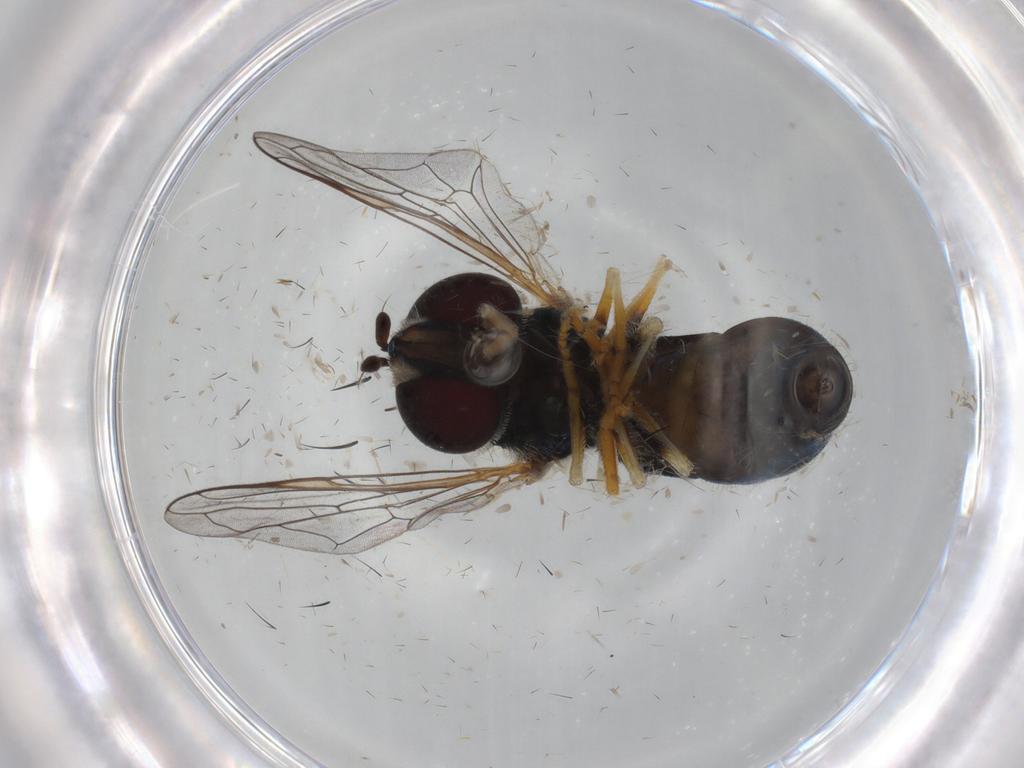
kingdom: Animalia
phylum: Arthropoda
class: Insecta
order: Diptera
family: Syrphidae
